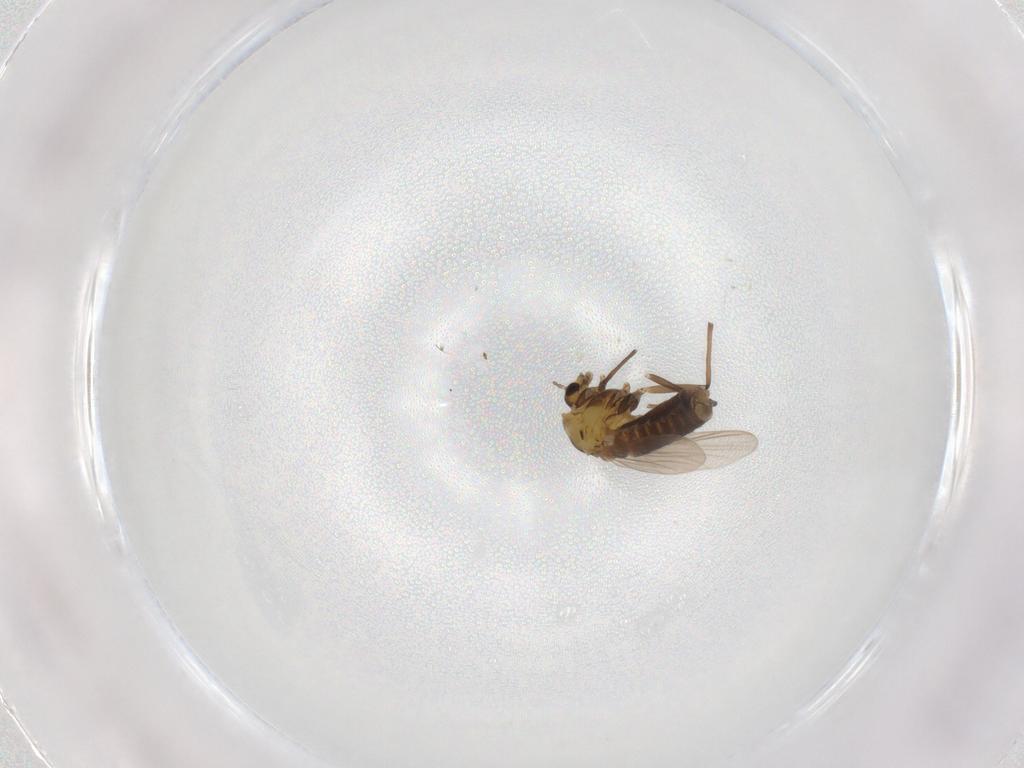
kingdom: Animalia
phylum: Arthropoda
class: Insecta
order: Diptera
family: Chironomidae
